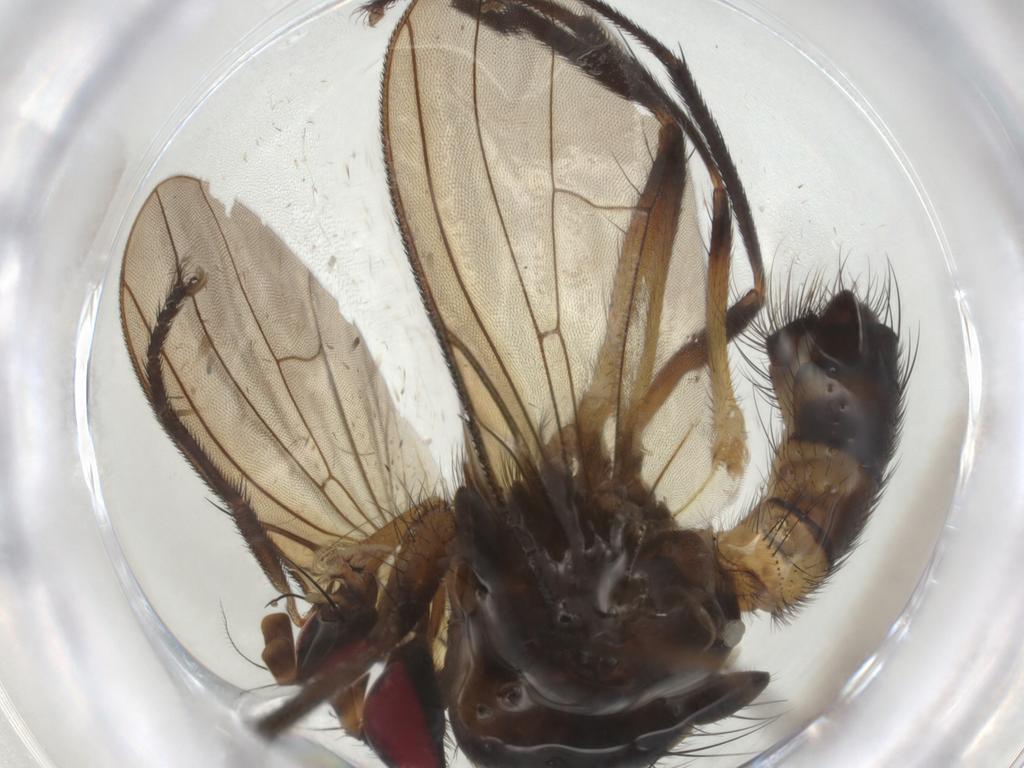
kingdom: Animalia
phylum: Arthropoda
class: Insecta
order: Diptera
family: Anthomyiidae
